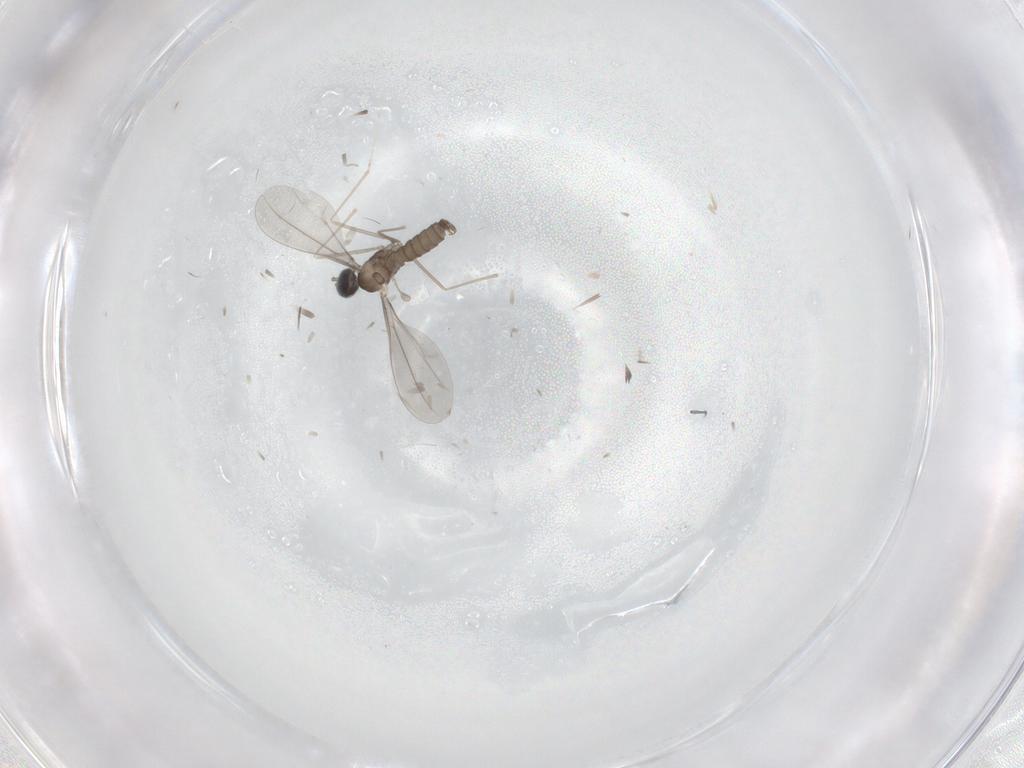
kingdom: Animalia
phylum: Arthropoda
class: Insecta
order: Diptera
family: Cecidomyiidae
